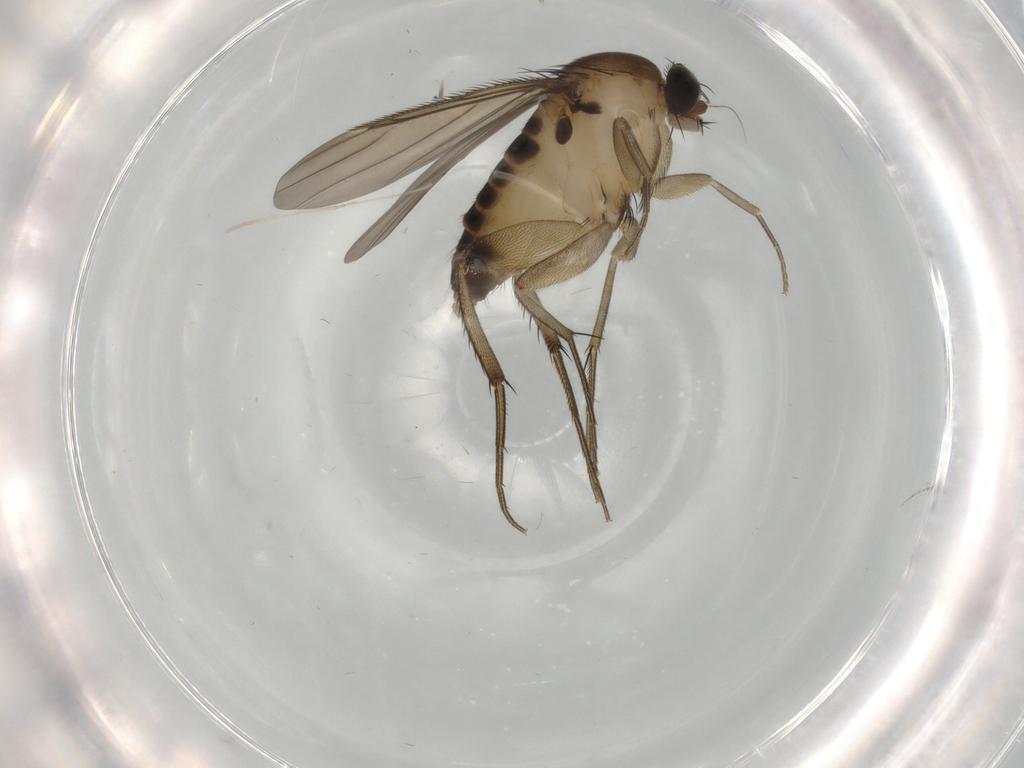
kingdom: Animalia
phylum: Arthropoda
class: Insecta
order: Diptera
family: Phoridae
